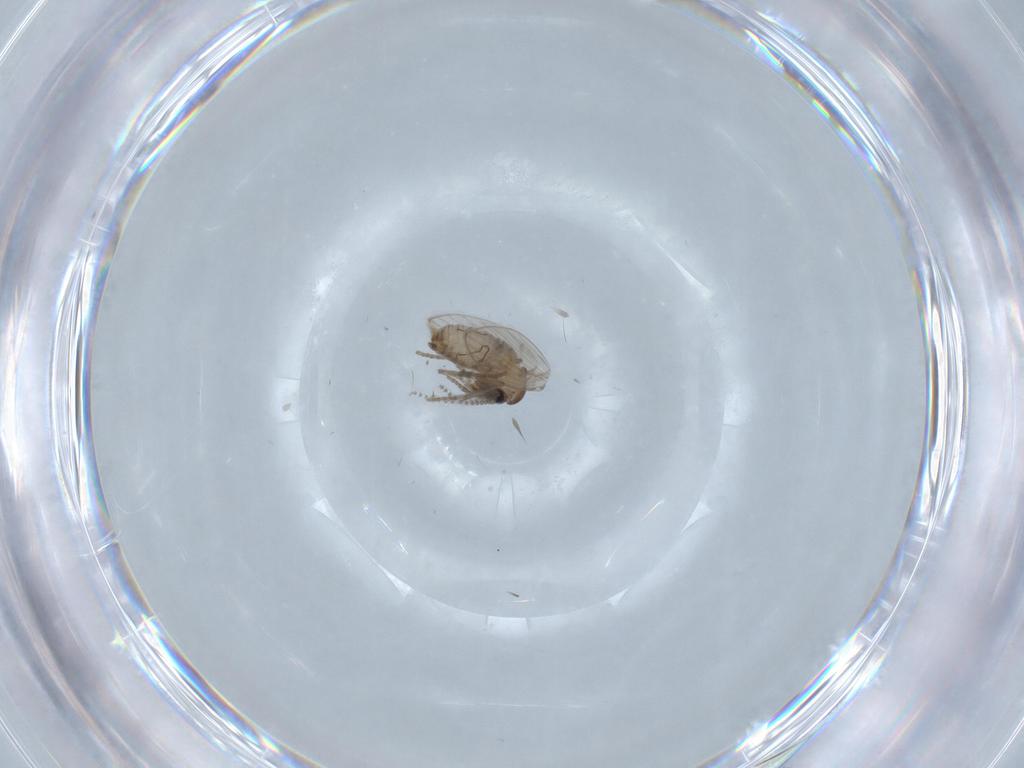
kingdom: Animalia
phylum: Arthropoda
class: Insecta
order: Diptera
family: Psychodidae
